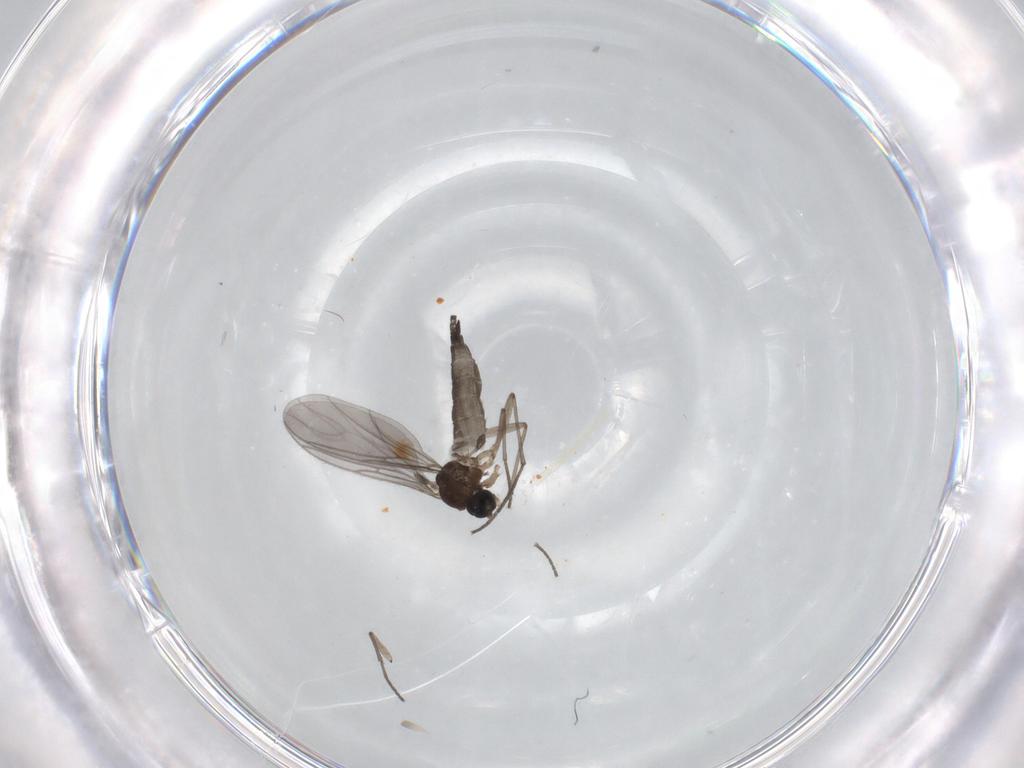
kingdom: Animalia
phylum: Arthropoda
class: Insecta
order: Diptera
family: Sciaridae
